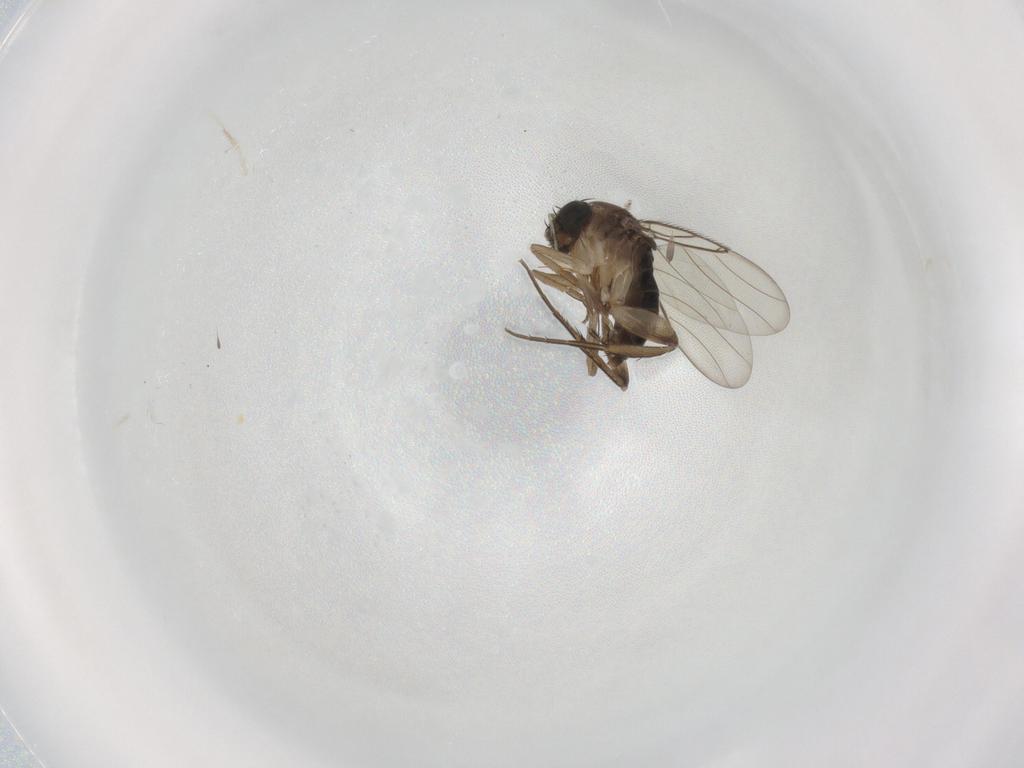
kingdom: Animalia
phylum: Arthropoda
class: Insecta
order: Diptera
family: Phoridae
